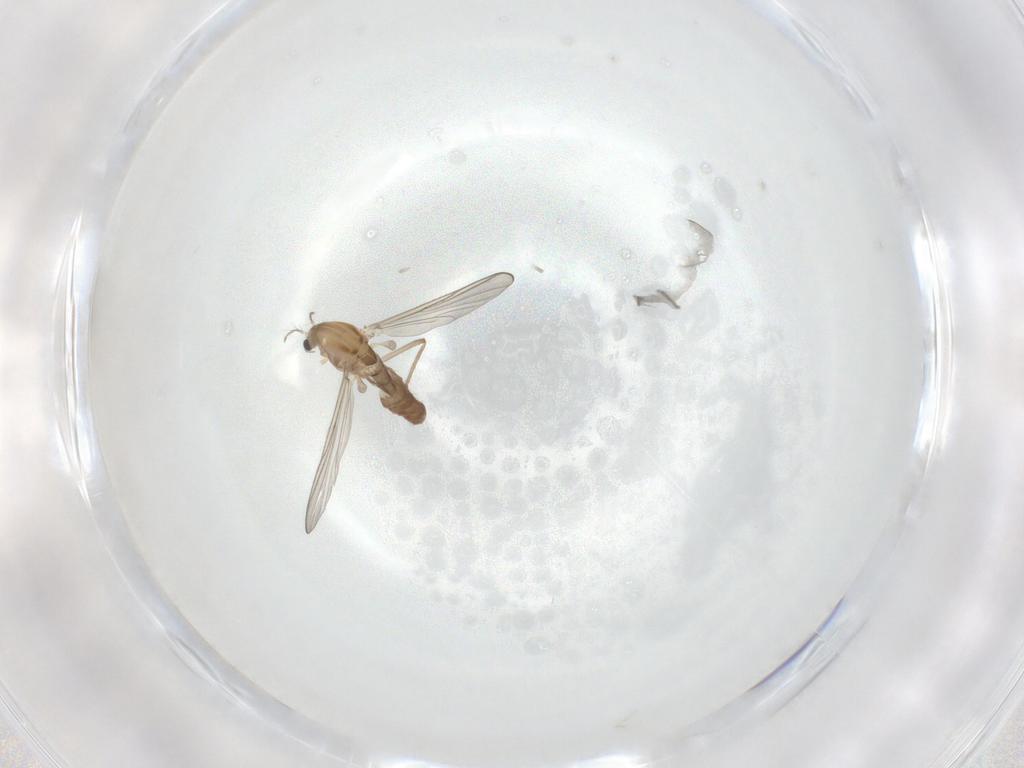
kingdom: Animalia
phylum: Arthropoda
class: Insecta
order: Diptera
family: Chironomidae
